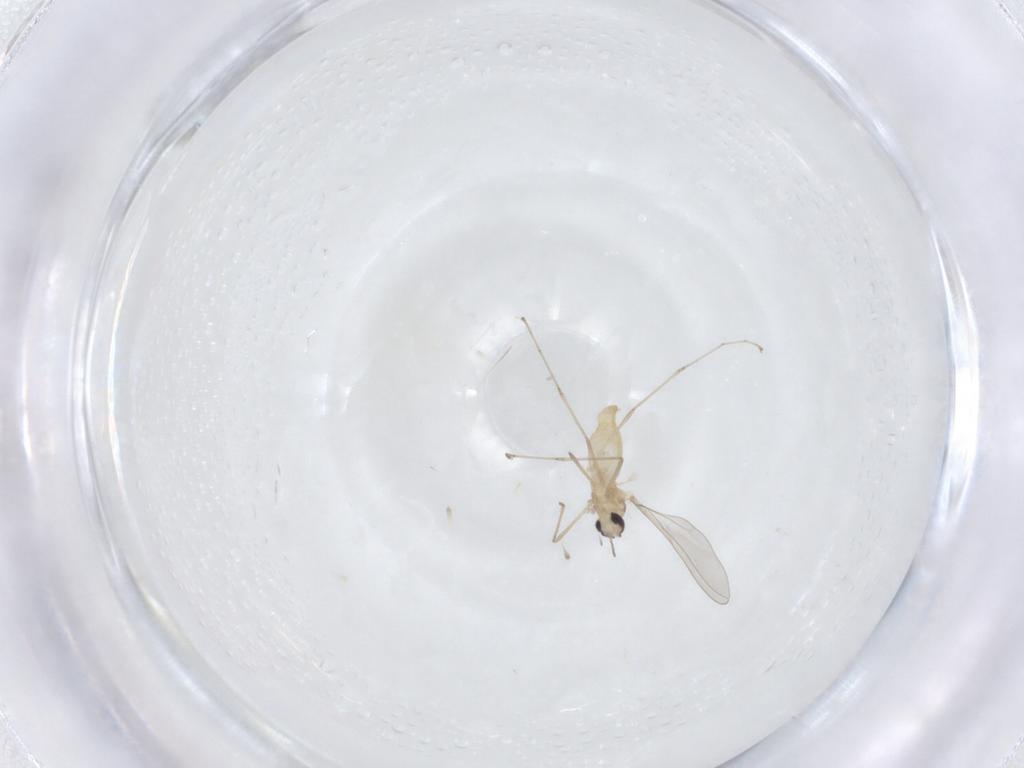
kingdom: Animalia
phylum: Arthropoda
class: Insecta
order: Diptera
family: Cecidomyiidae
